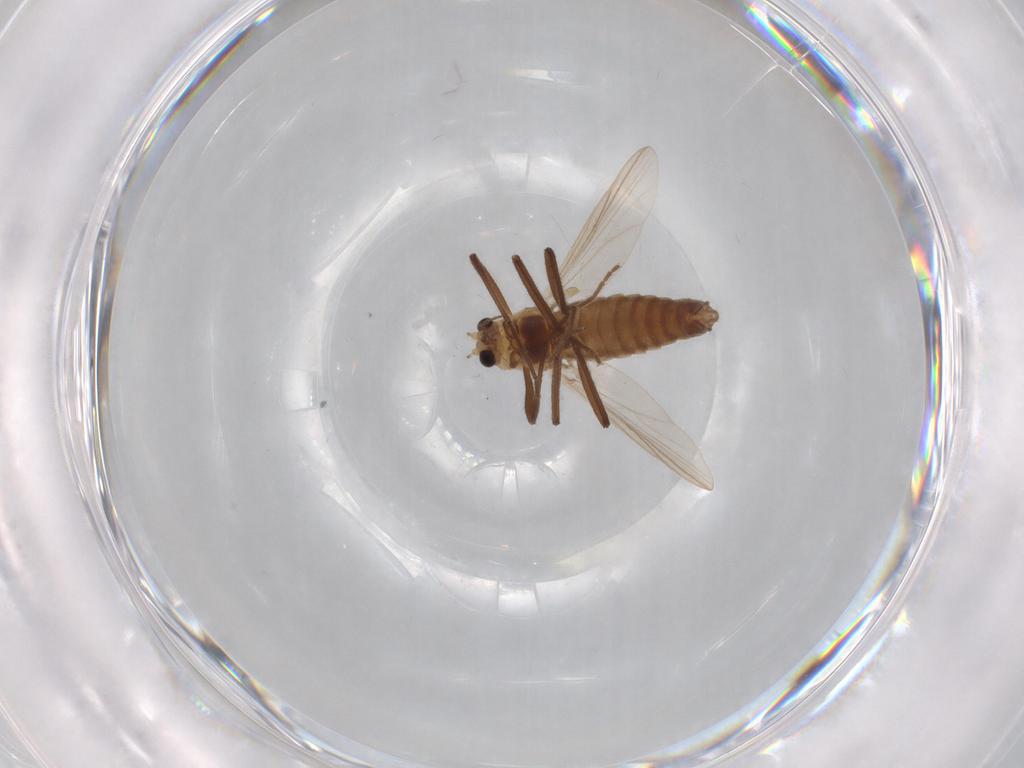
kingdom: Animalia
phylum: Arthropoda
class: Insecta
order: Diptera
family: Chironomidae
